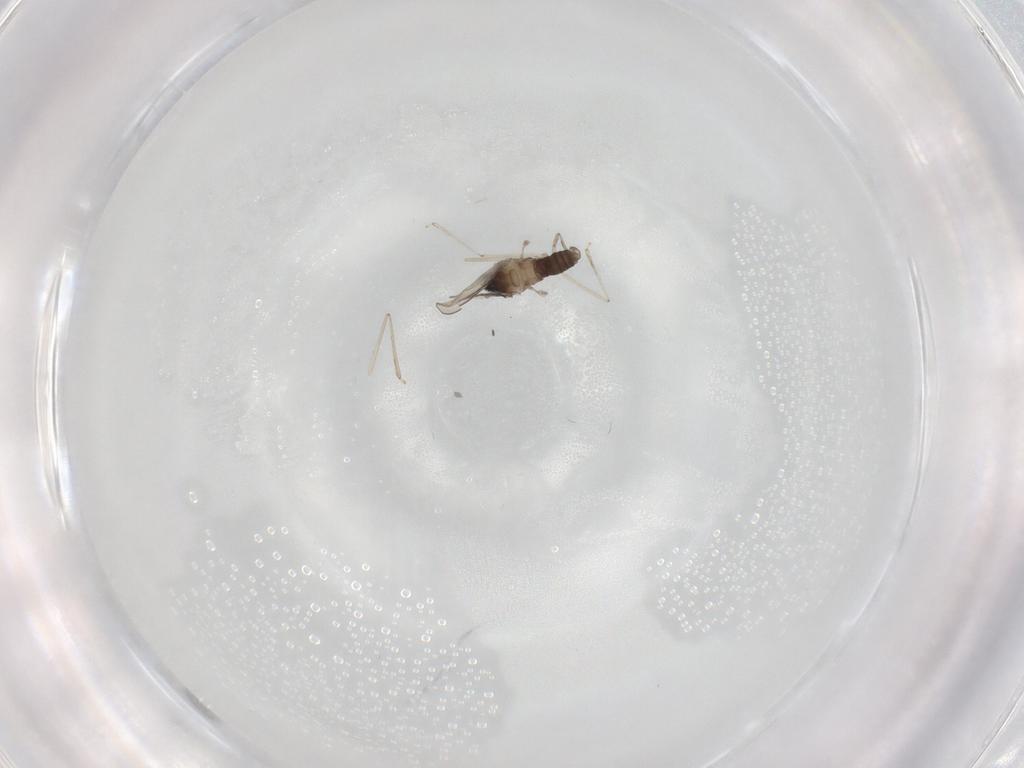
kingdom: Animalia
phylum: Arthropoda
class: Insecta
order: Diptera
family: Cecidomyiidae
